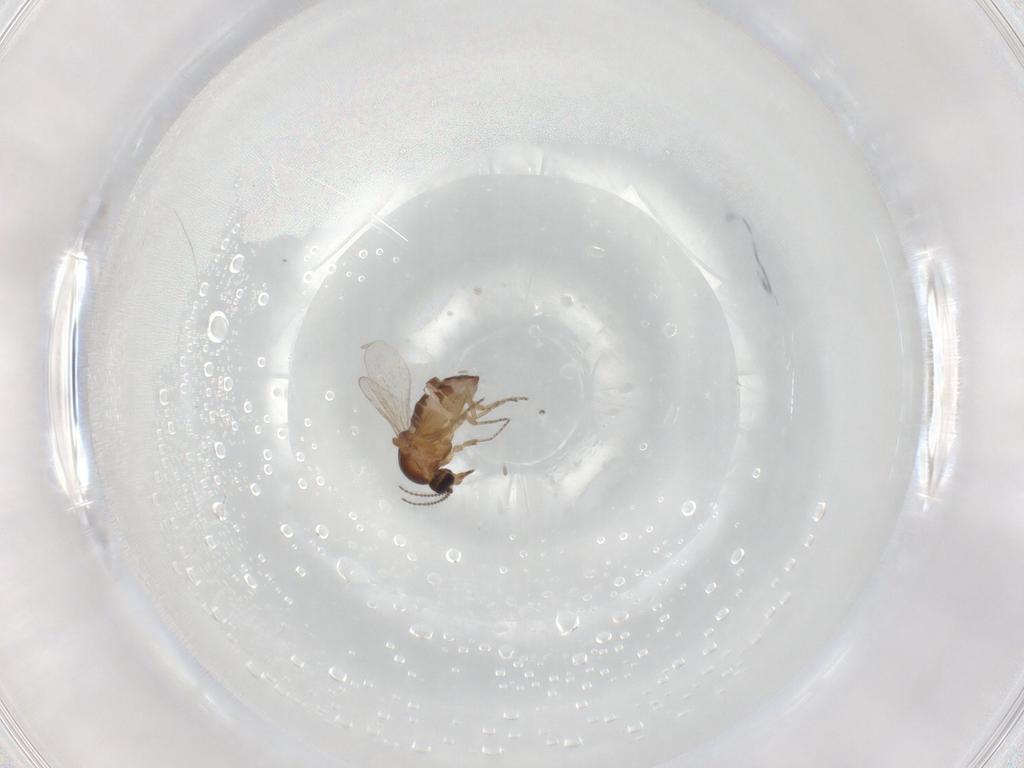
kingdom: Animalia
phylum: Arthropoda
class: Insecta
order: Diptera
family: Ceratopogonidae
